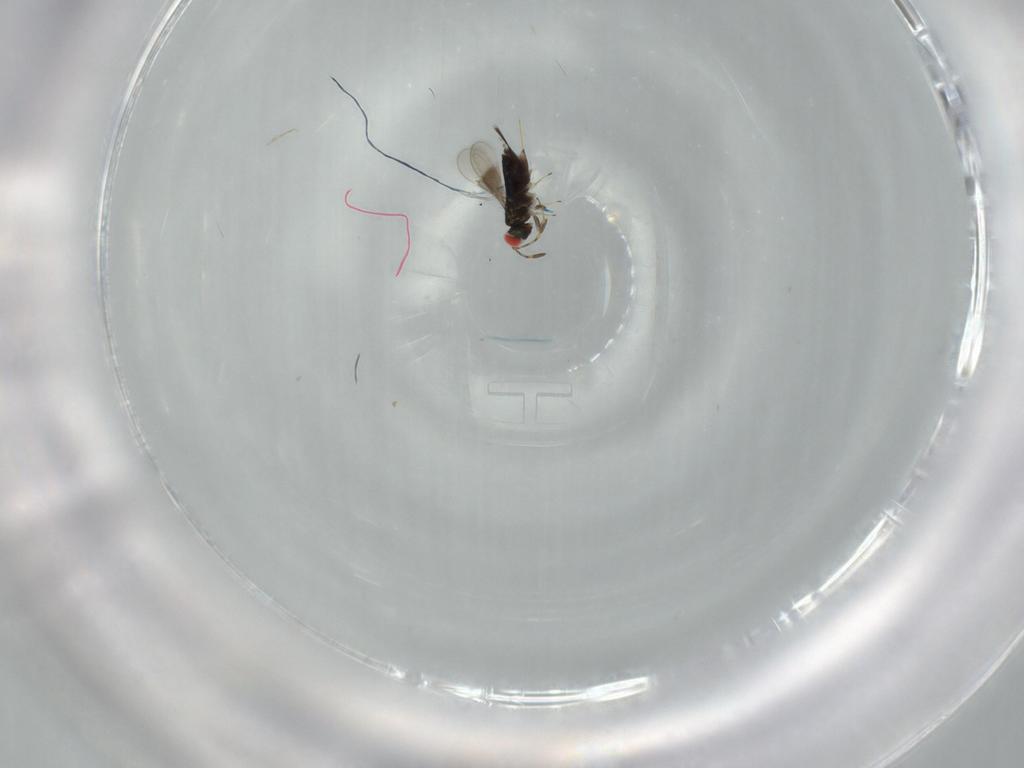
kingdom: Animalia
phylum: Arthropoda
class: Insecta
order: Hymenoptera
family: Azotidae
